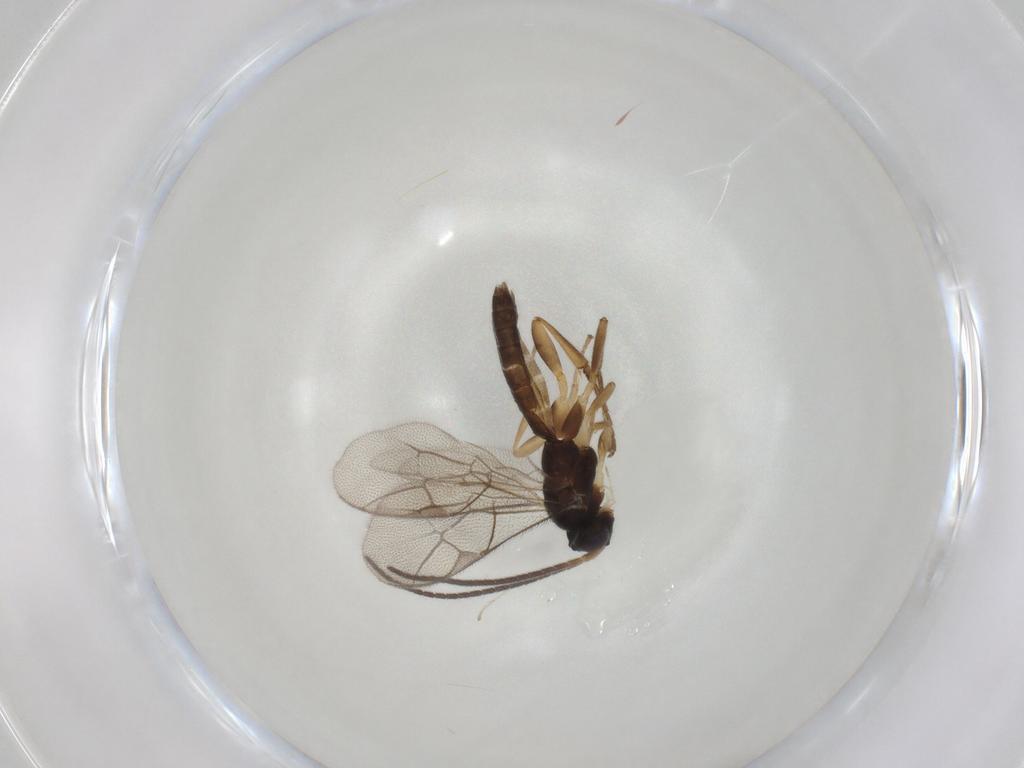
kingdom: Animalia
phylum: Arthropoda
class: Insecta
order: Hymenoptera
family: Ichneumonidae
